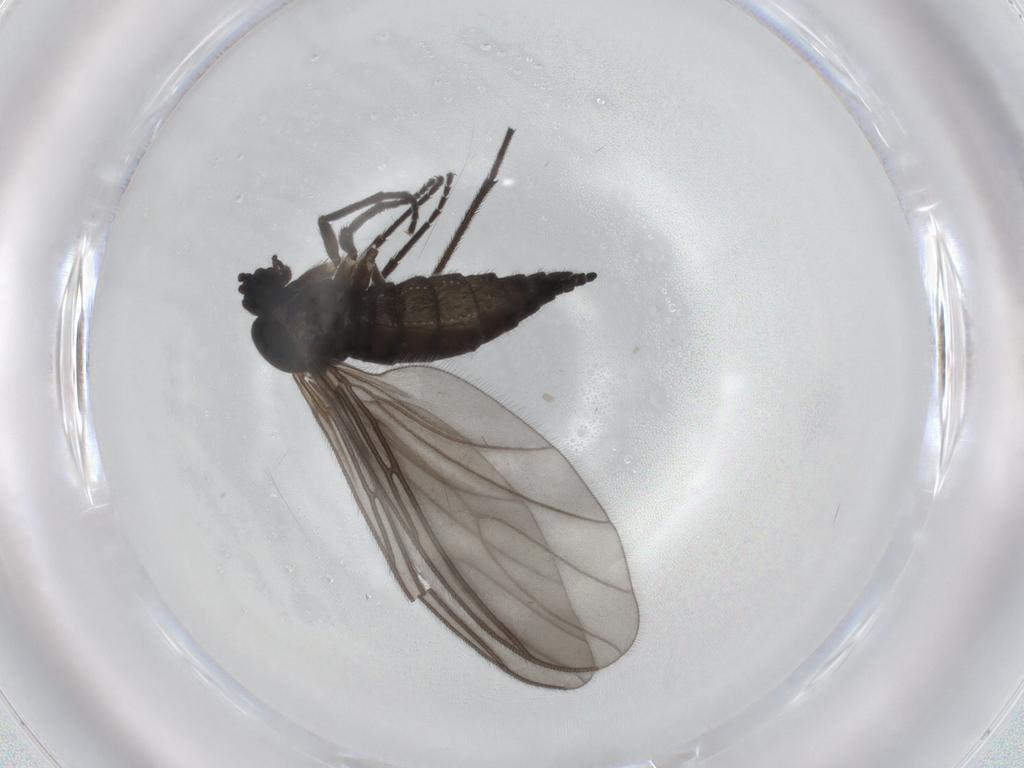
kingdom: Animalia
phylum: Arthropoda
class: Insecta
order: Diptera
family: Sciaridae
